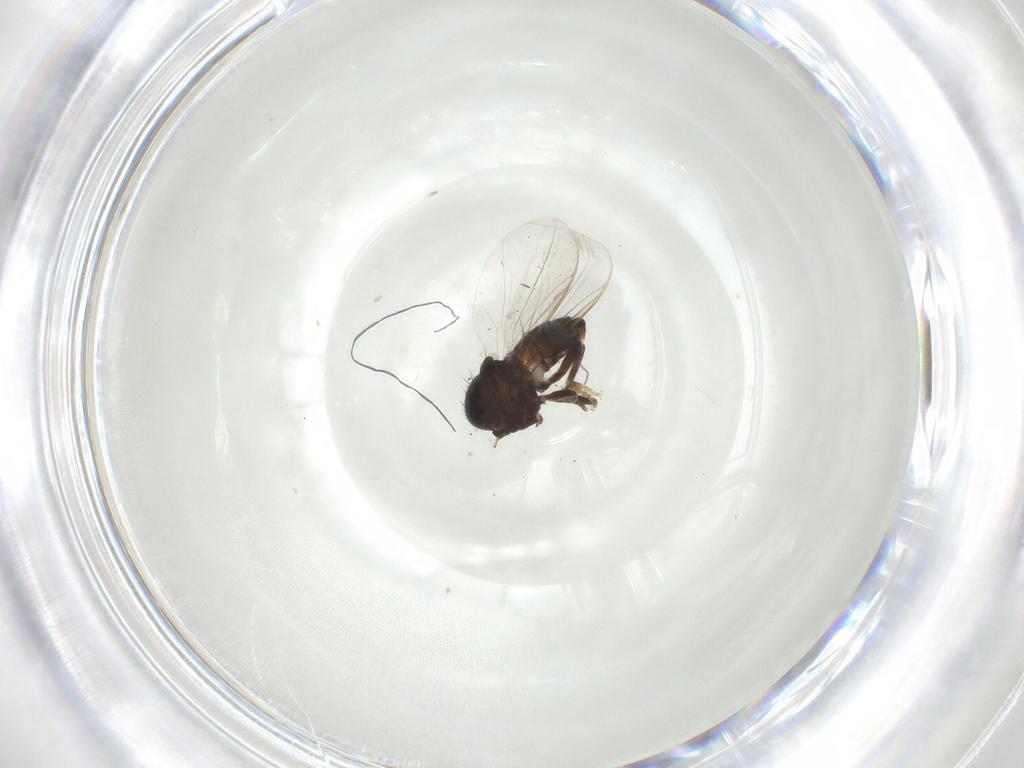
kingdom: Animalia
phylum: Arthropoda
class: Insecta
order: Diptera
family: Pipunculidae
